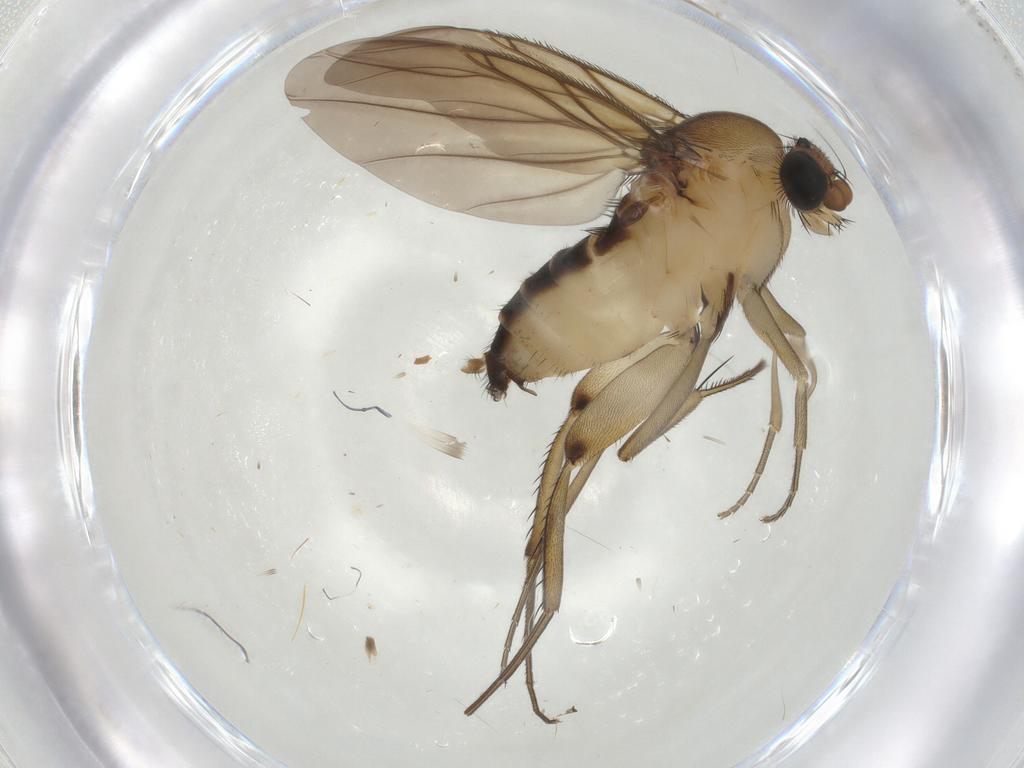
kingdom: Animalia
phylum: Arthropoda
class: Insecta
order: Diptera
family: Phoridae
